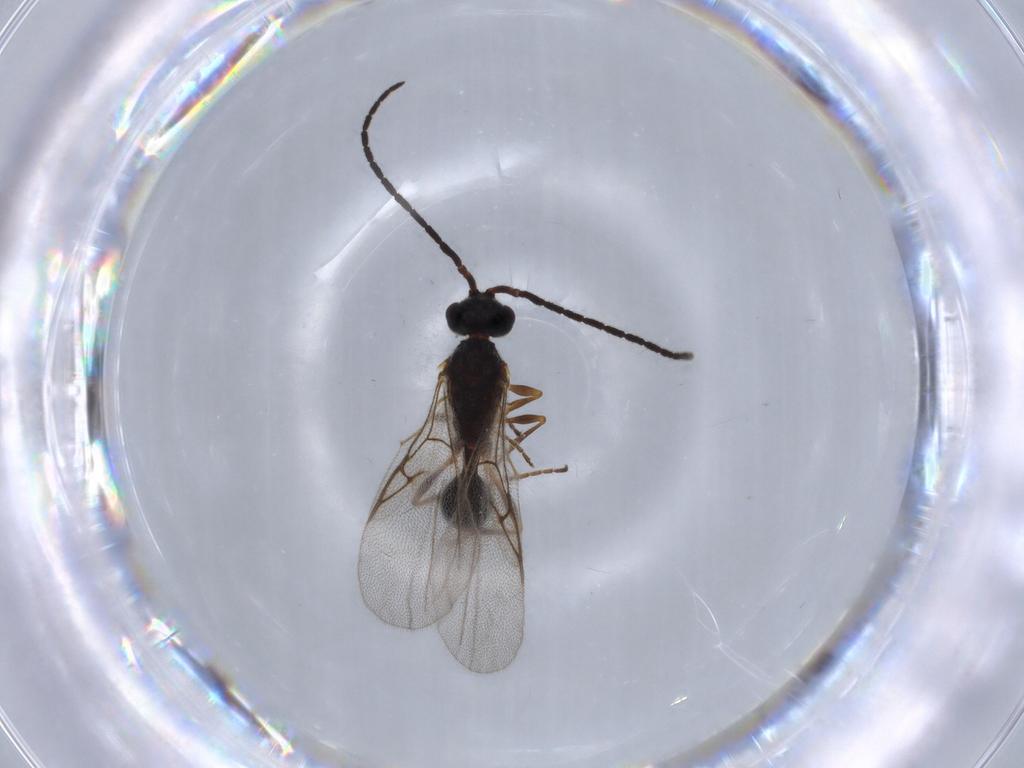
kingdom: Animalia
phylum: Arthropoda
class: Insecta
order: Hymenoptera
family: Diapriidae
